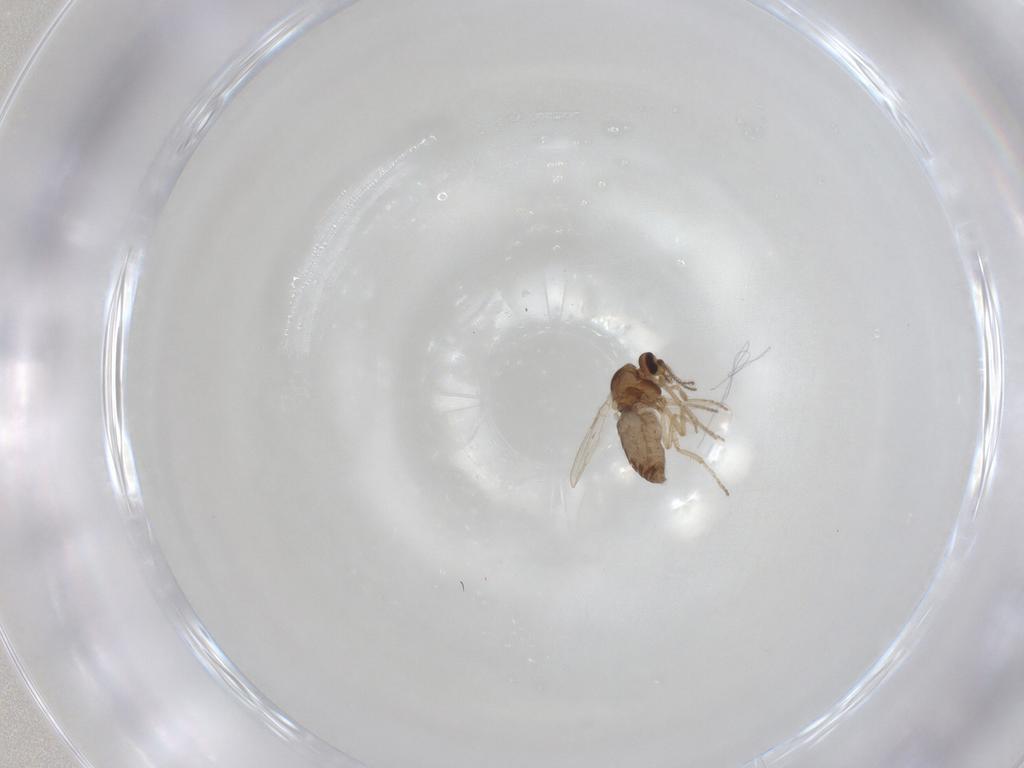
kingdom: Animalia
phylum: Arthropoda
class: Insecta
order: Diptera
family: Ceratopogonidae
